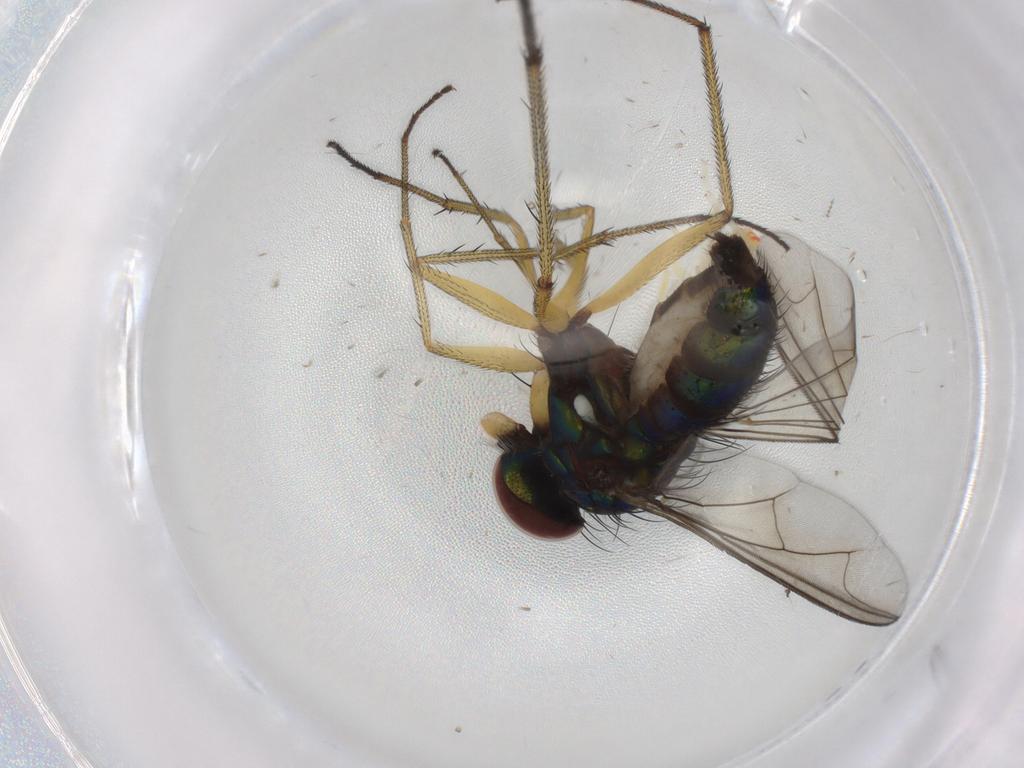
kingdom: Animalia
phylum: Arthropoda
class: Insecta
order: Diptera
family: Dolichopodidae
